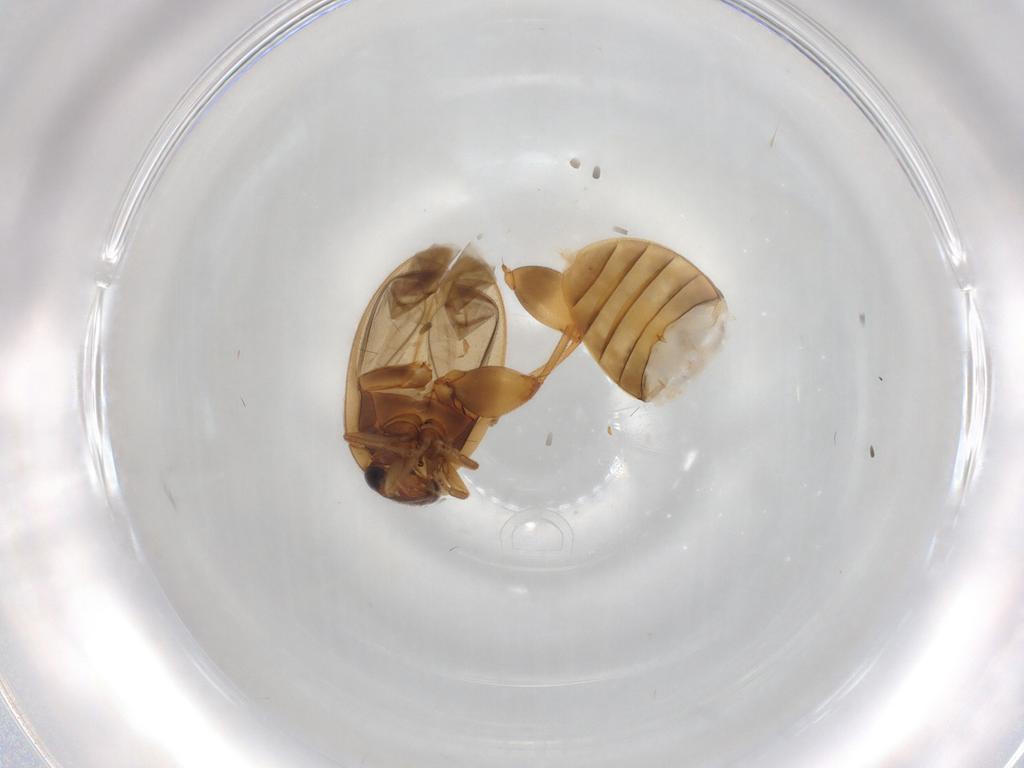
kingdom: Animalia
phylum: Arthropoda
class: Insecta
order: Coleoptera
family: Scirtidae
